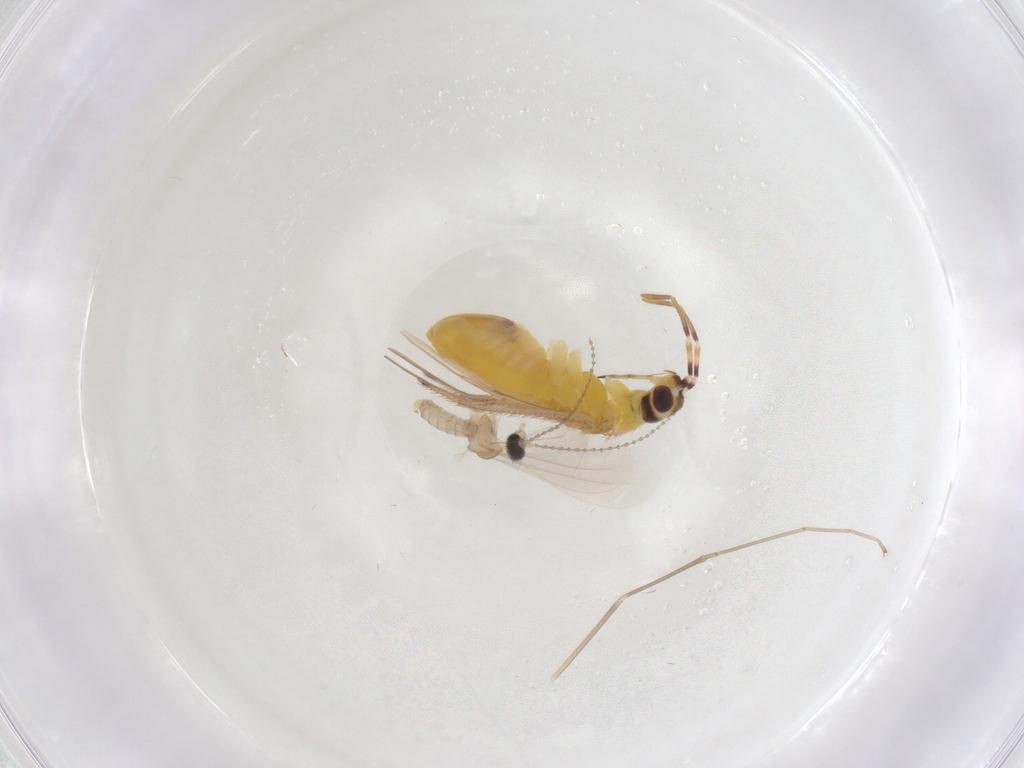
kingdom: Animalia
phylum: Arthropoda
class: Insecta
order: Diptera
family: Cecidomyiidae
